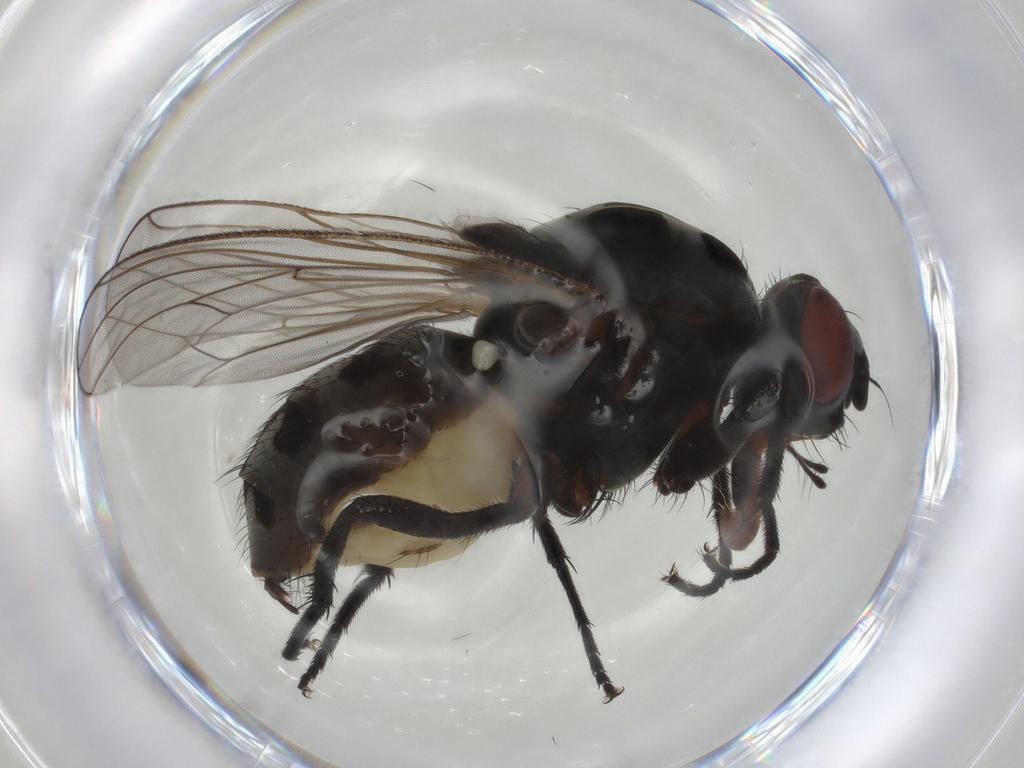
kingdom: Animalia
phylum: Arthropoda
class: Insecta
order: Diptera
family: Anthomyiidae
